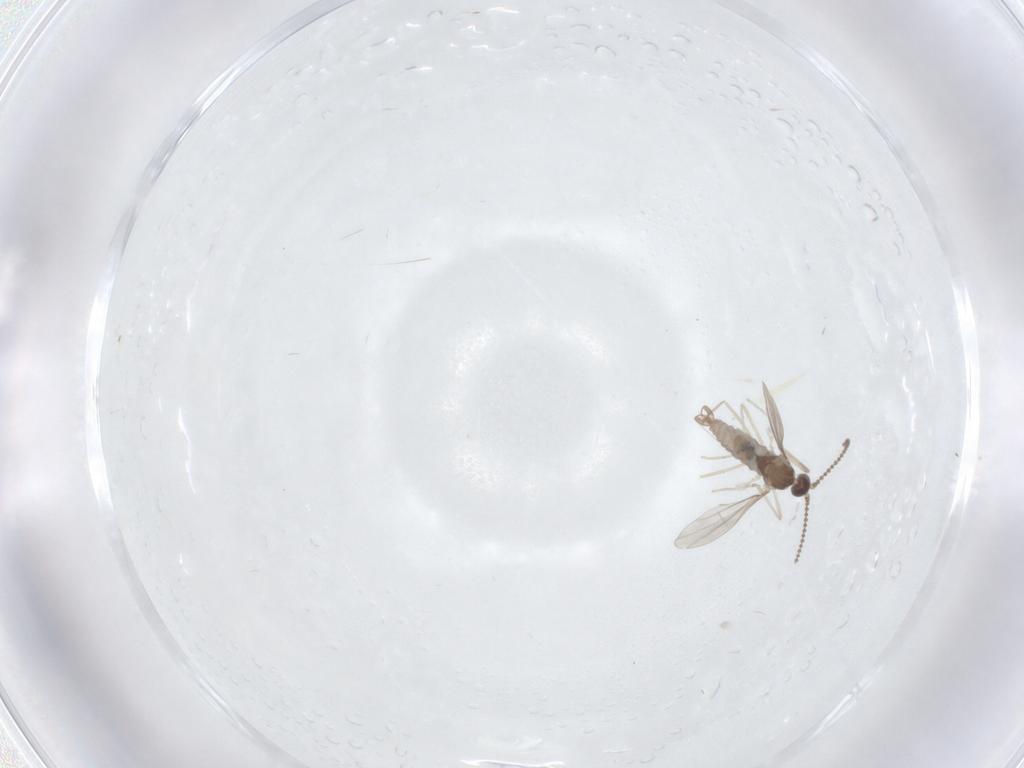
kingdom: Animalia
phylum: Arthropoda
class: Insecta
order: Diptera
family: Cecidomyiidae
